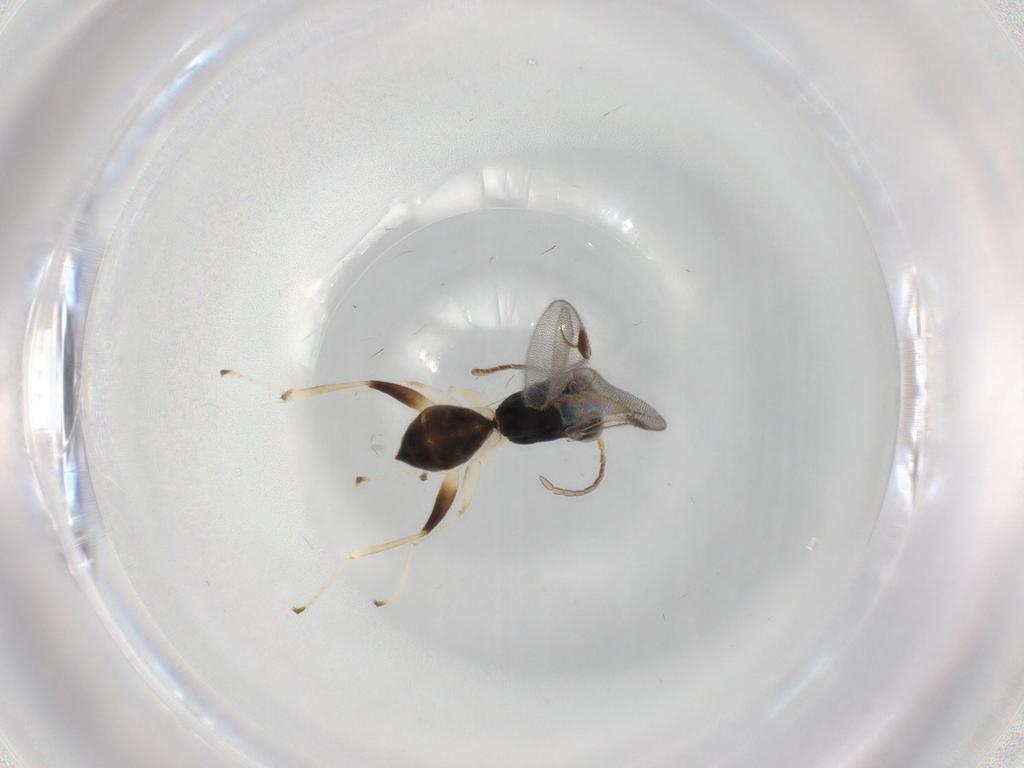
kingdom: Animalia
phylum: Arthropoda
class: Insecta
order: Hymenoptera
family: Dryinidae
